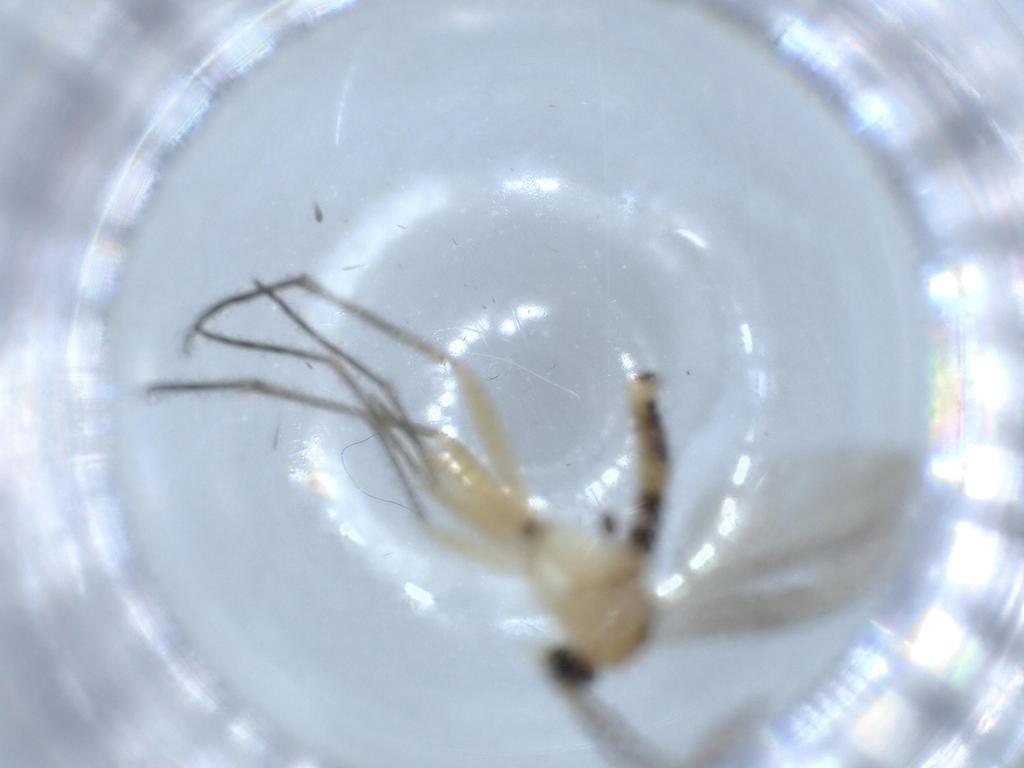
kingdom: Animalia
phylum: Arthropoda
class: Insecta
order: Diptera
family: Sciaridae
